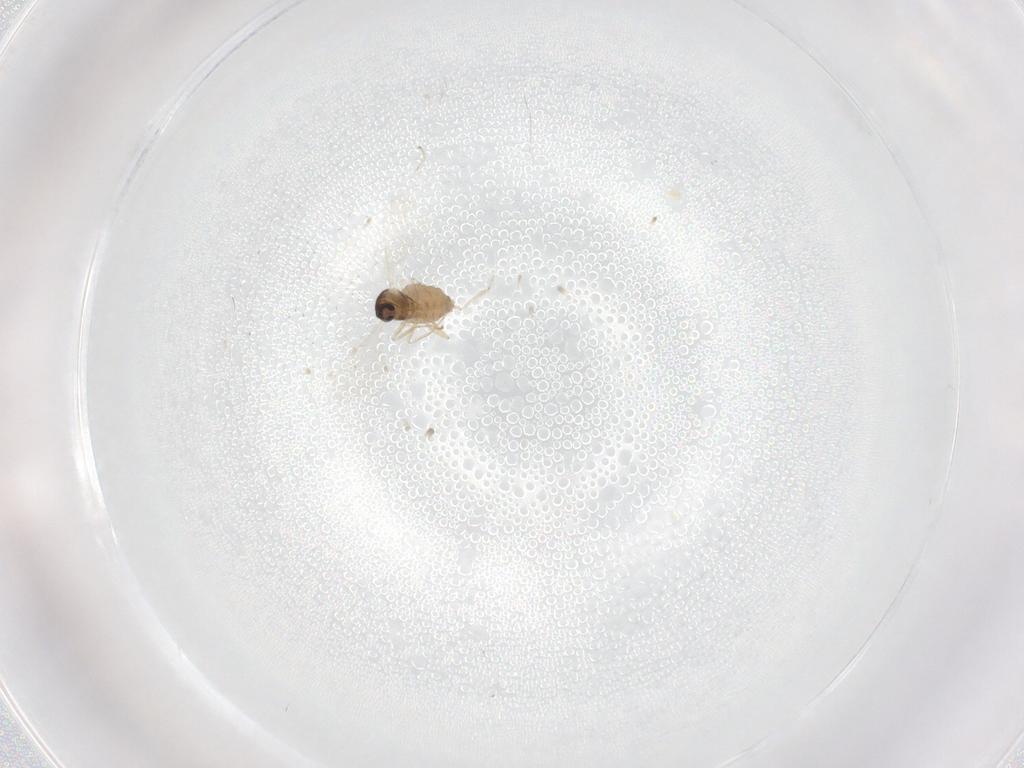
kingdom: Animalia
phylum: Arthropoda
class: Insecta
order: Diptera
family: Cecidomyiidae
